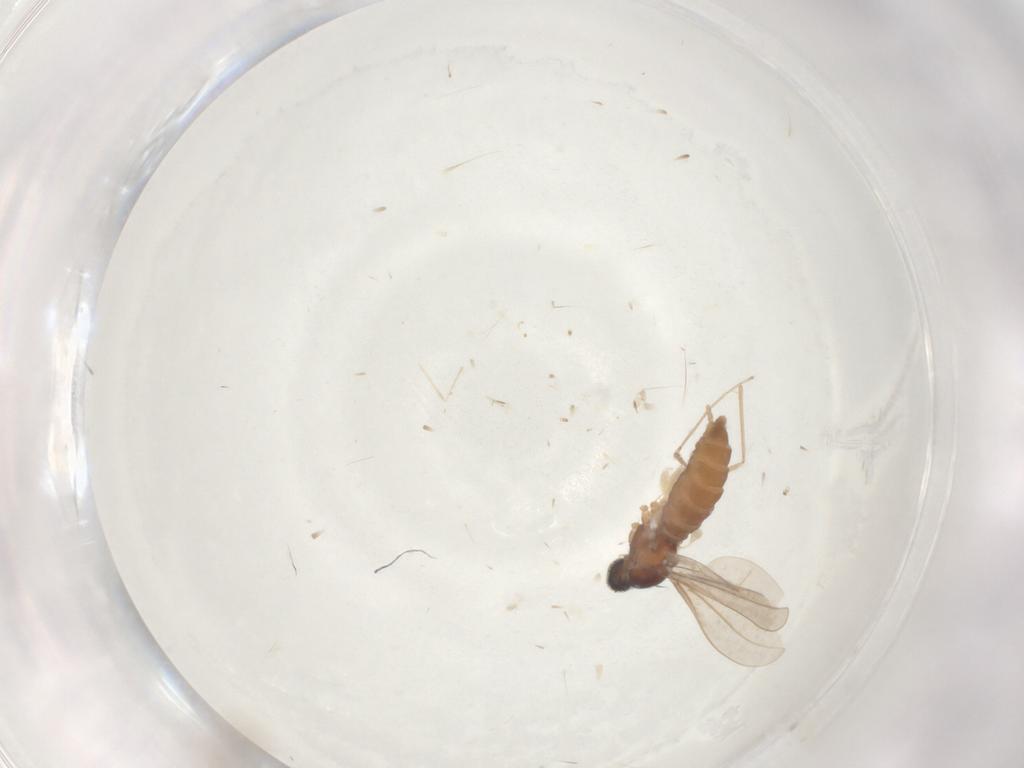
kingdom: Animalia
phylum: Arthropoda
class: Insecta
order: Diptera
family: Cecidomyiidae
